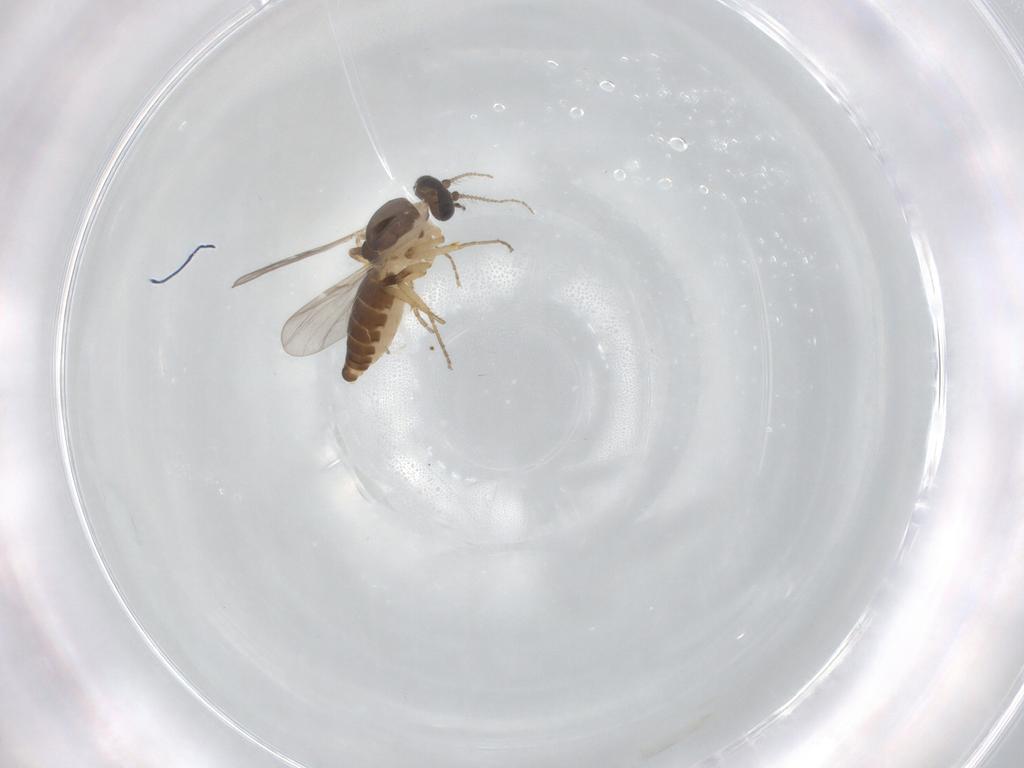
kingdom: Animalia
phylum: Arthropoda
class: Insecta
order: Diptera
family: Ceratopogonidae
